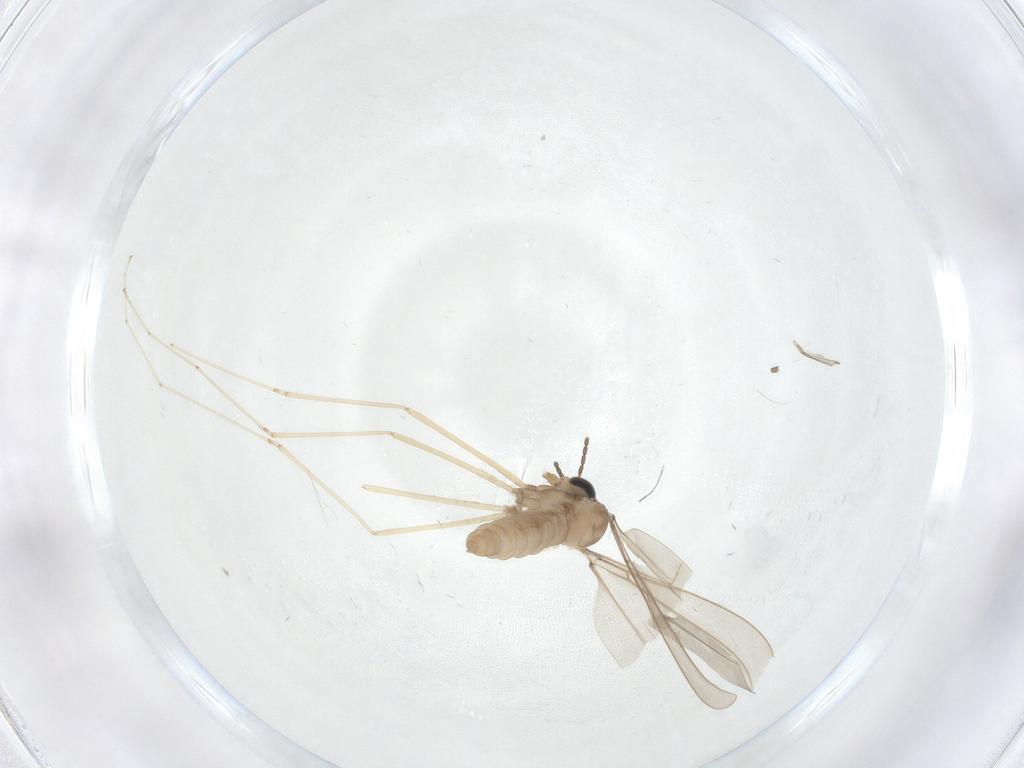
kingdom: Animalia
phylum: Arthropoda
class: Insecta
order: Diptera
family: Cecidomyiidae
